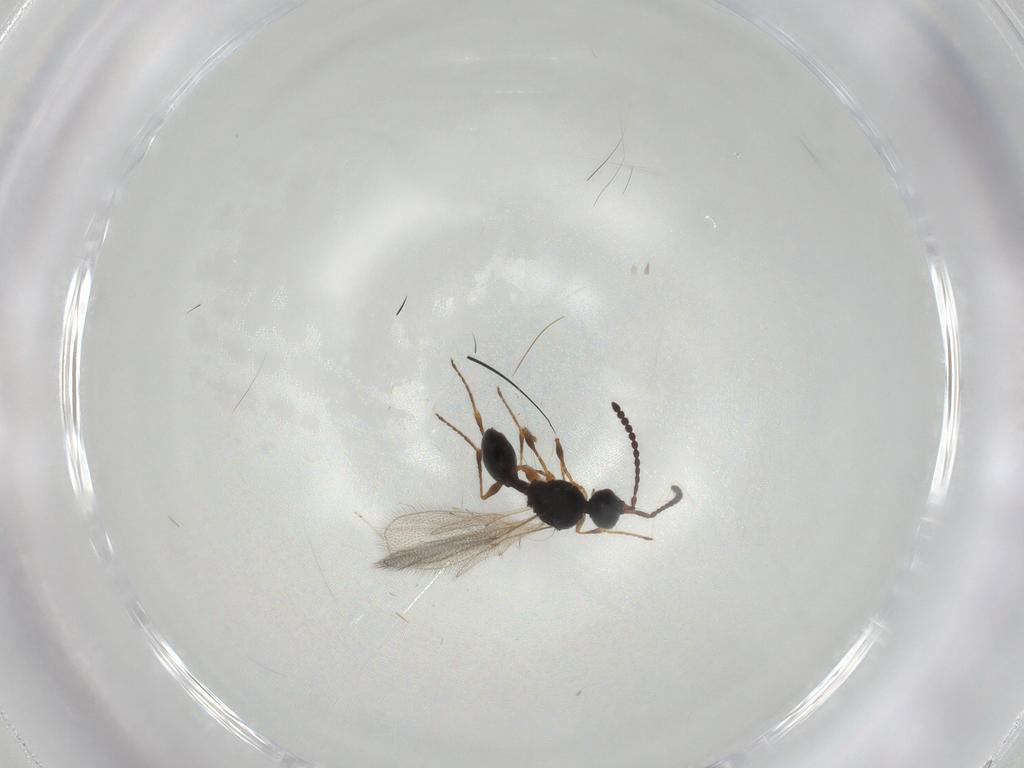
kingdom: Animalia
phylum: Arthropoda
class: Insecta
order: Hymenoptera
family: Diapriidae
